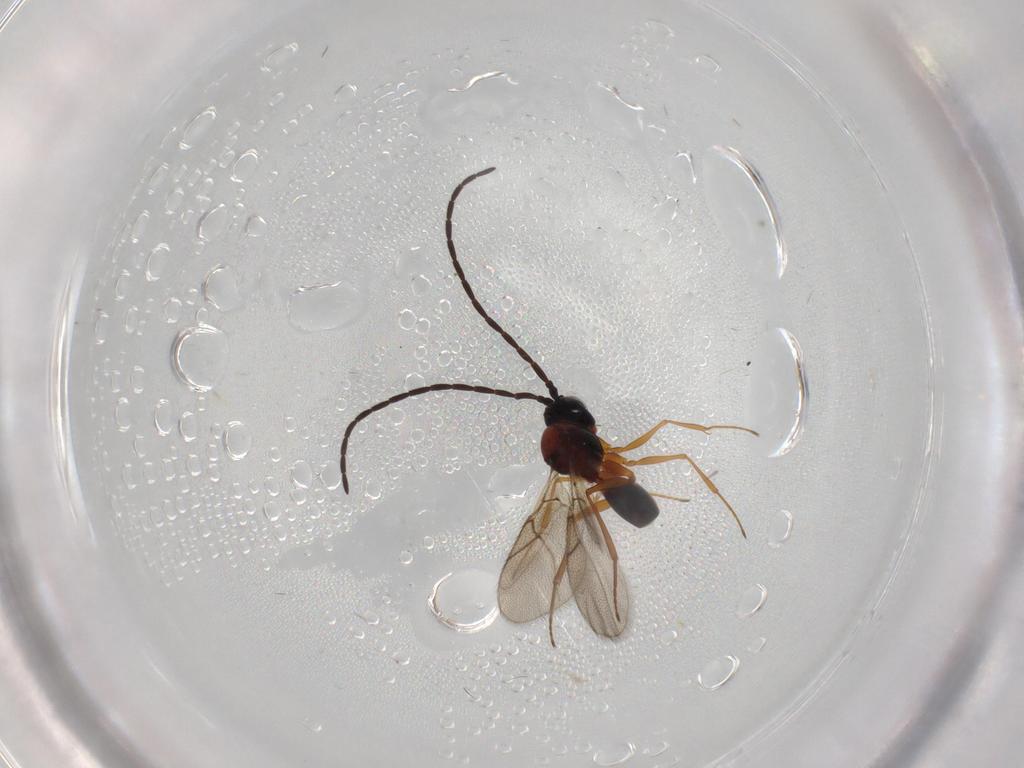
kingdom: Animalia
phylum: Arthropoda
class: Insecta
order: Hymenoptera
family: Figitidae
